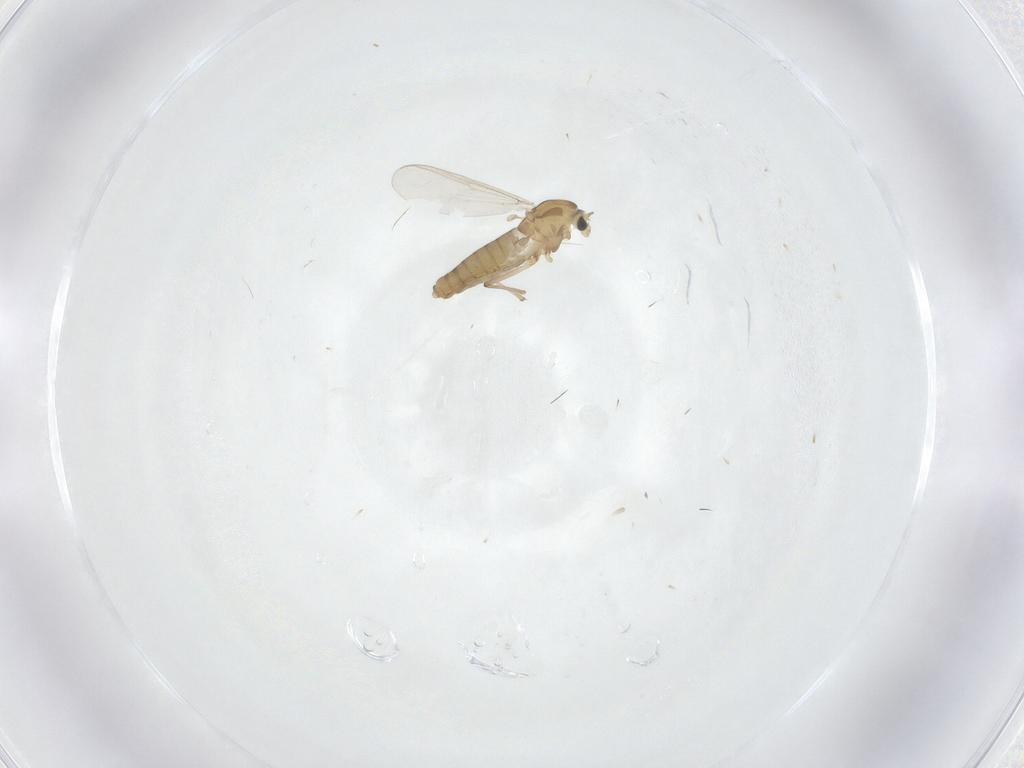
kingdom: Animalia
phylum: Arthropoda
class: Insecta
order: Diptera
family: Chironomidae
